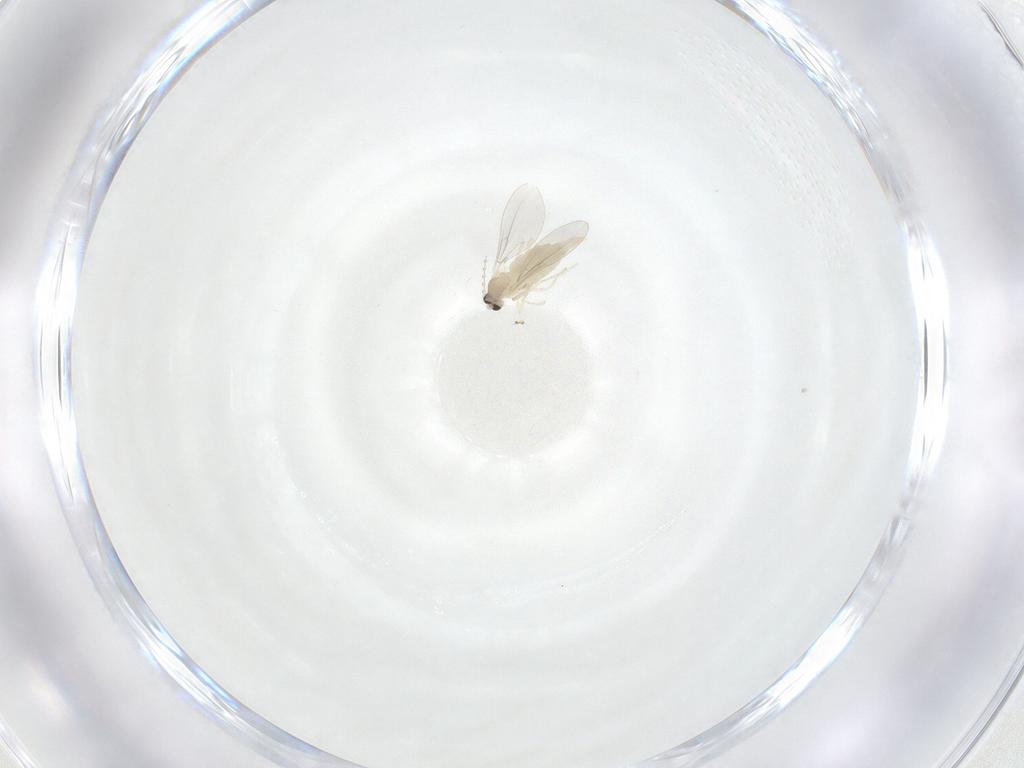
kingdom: Animalia
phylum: Arthropoda
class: Insecta
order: Diptera
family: Cecidomyiidae
